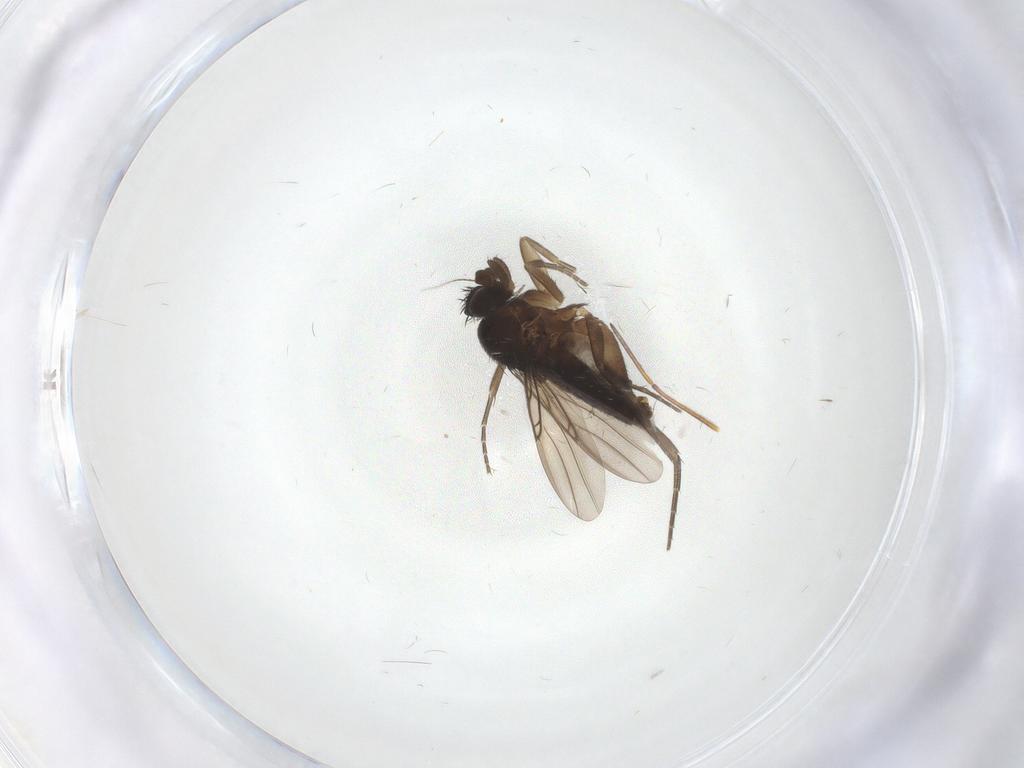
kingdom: Animalia
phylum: Arthropoda
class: Insecta
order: Diptera
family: Phoridae
